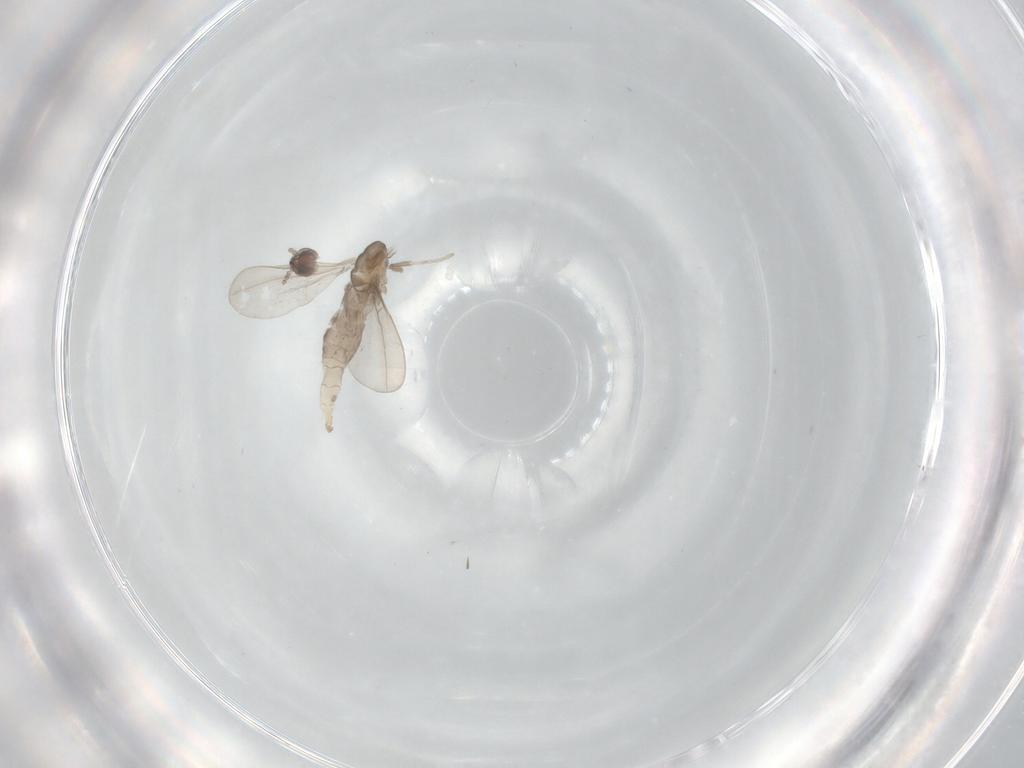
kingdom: Animalia
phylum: Arthropoda
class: Insecta
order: Diptera
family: Cecidomyiidae
